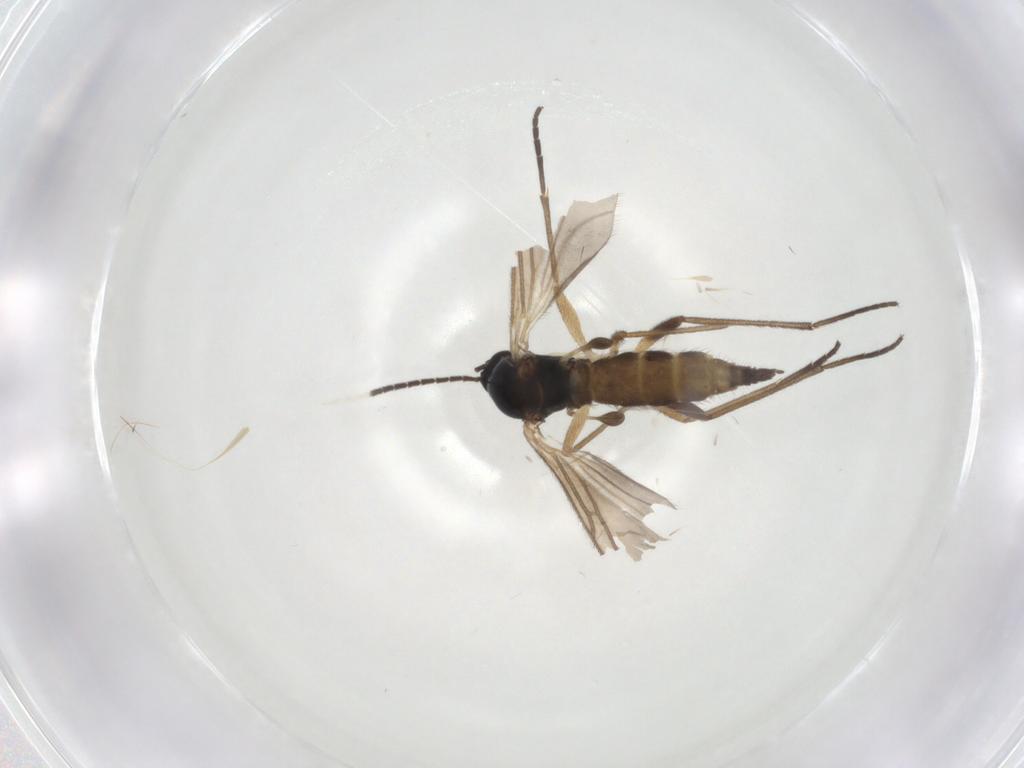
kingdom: Animalia
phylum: Arthropoda
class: Insecta
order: Diptera
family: Sciaridae
